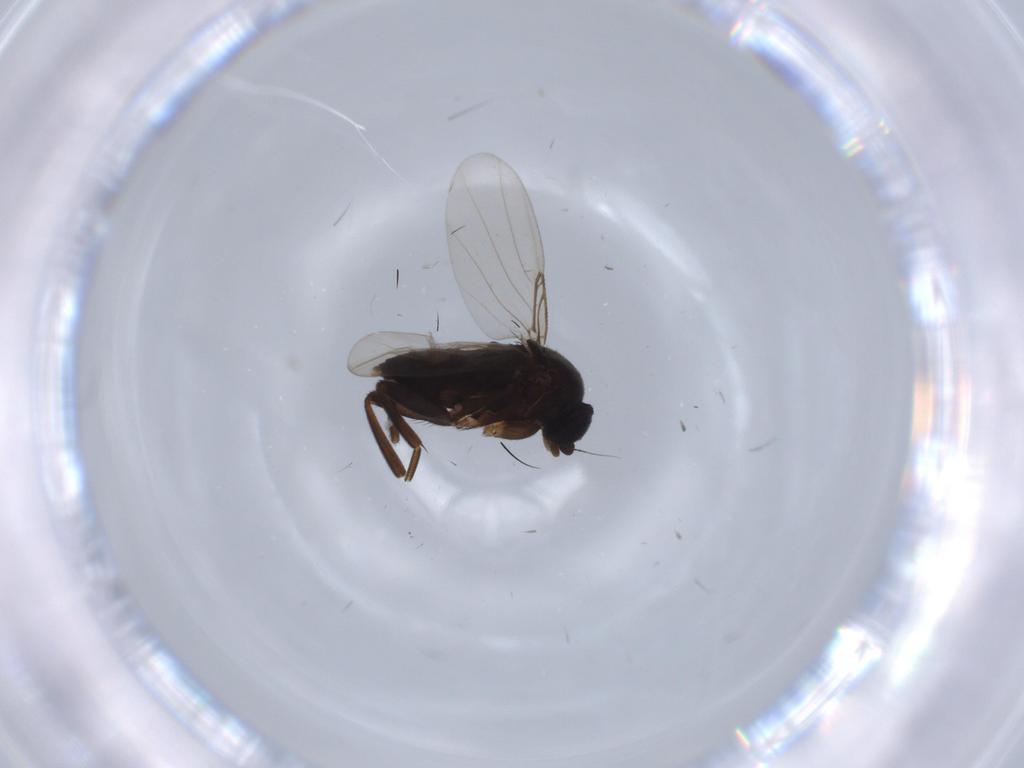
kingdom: Animalia
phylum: Arthropoda
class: Insecta
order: Diptera
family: Phoridae
